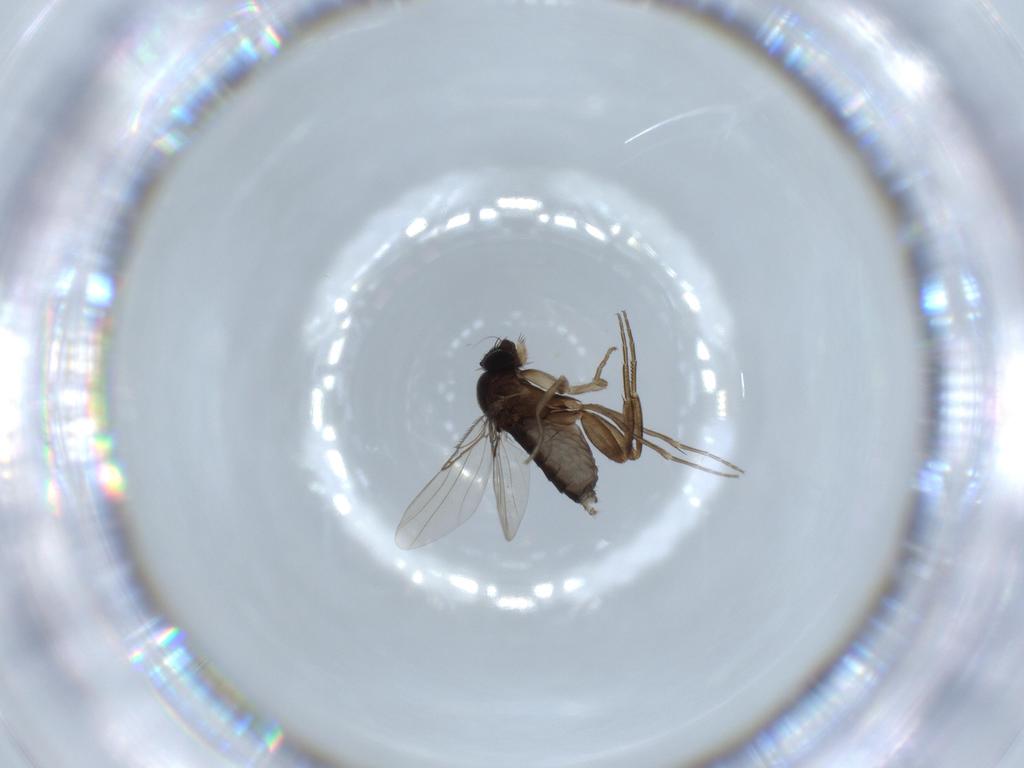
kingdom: Animalia
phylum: Arthropoda
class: Insecta
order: Diptera
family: Phoridae
